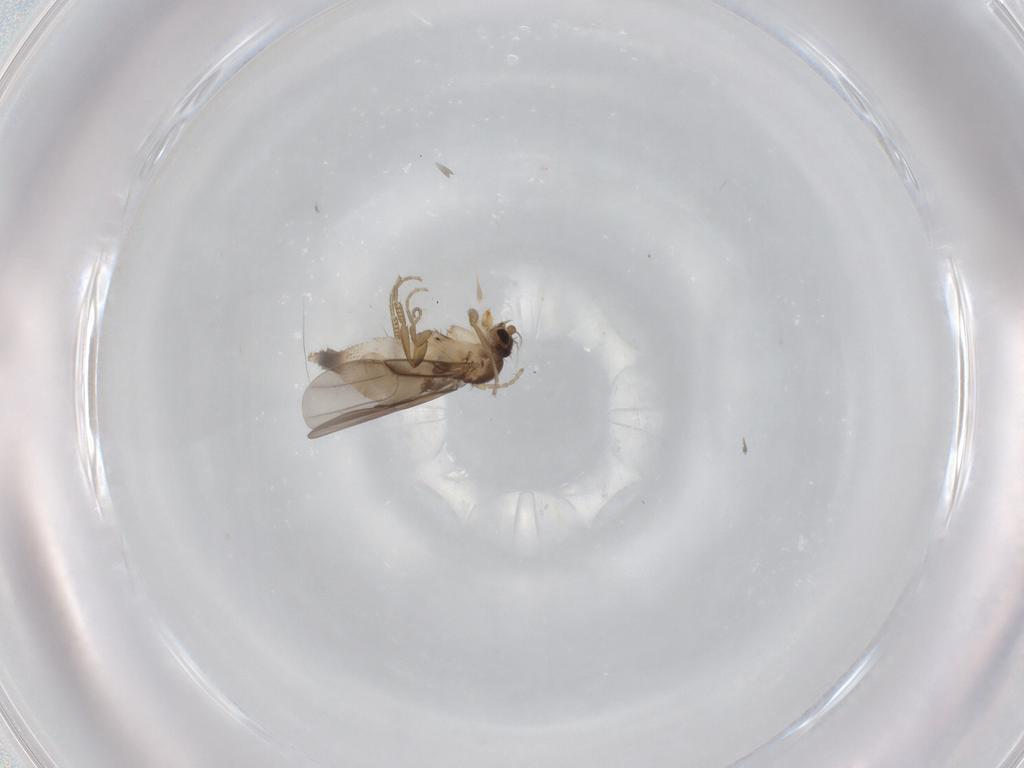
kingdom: Animalia
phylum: Arthropoda
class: Insecta
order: Diptera
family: Phoridae
